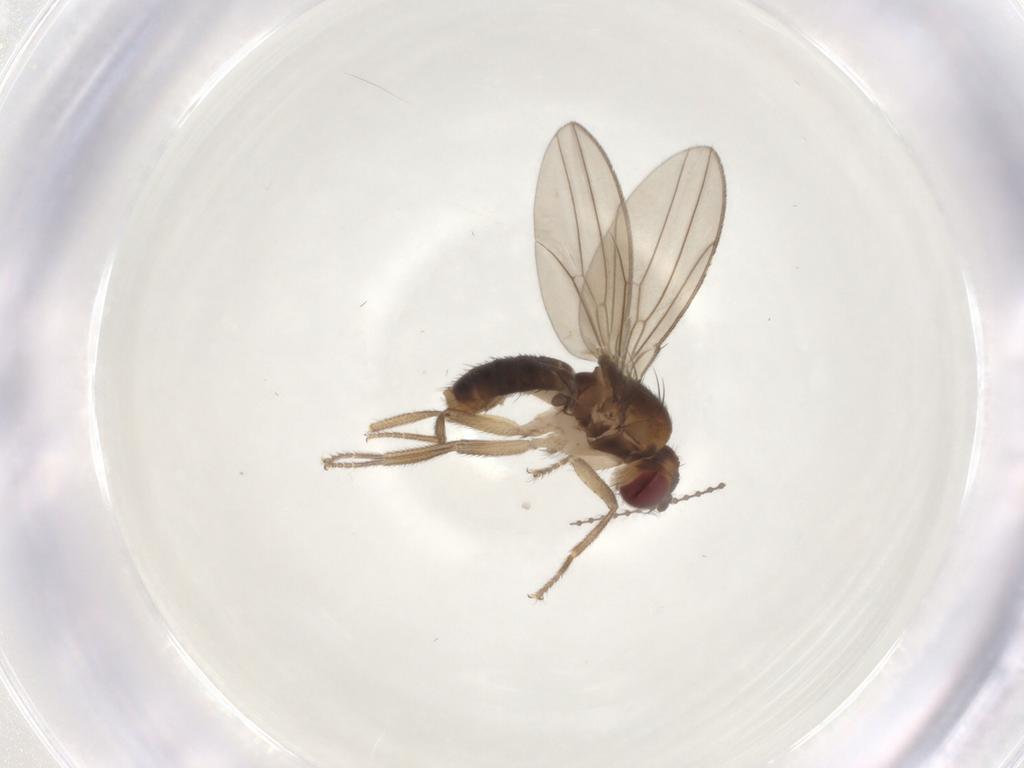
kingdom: Animalia
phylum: Arthropoda
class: Insecta
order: Diptera
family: Drosophilidae
